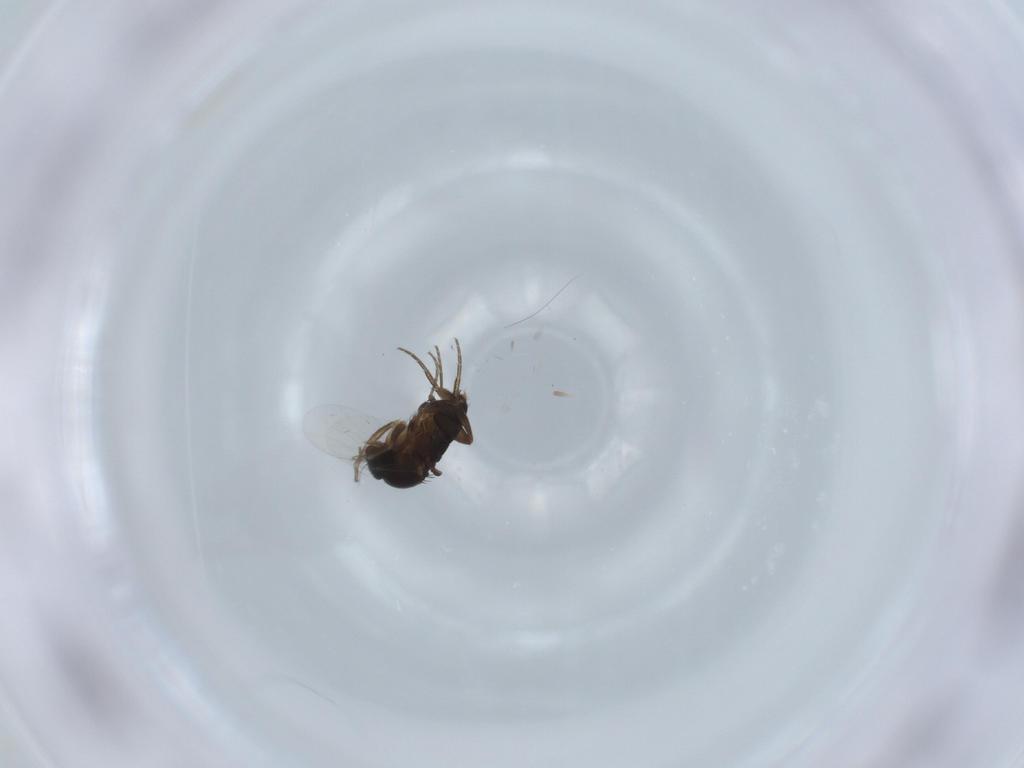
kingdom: Animalia
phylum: Arthropoda
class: Insecta
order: Diptera
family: Phoridae
